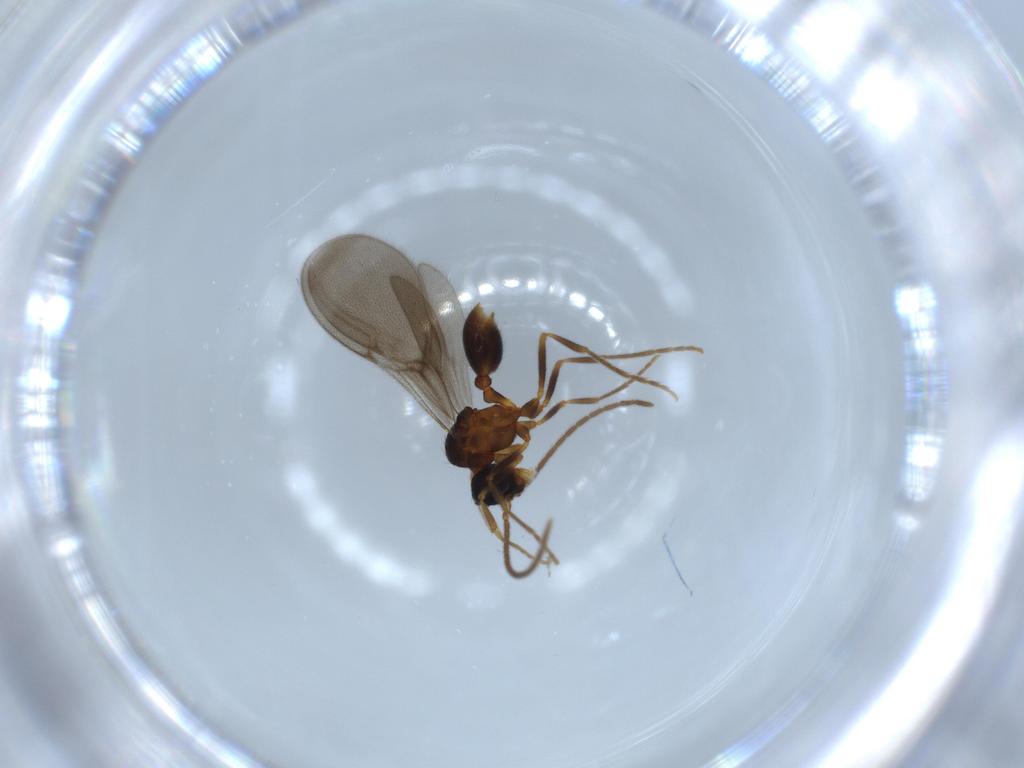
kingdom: Animalia
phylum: Arthropoda
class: Insecta
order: Hymenoptera
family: Formicidae
